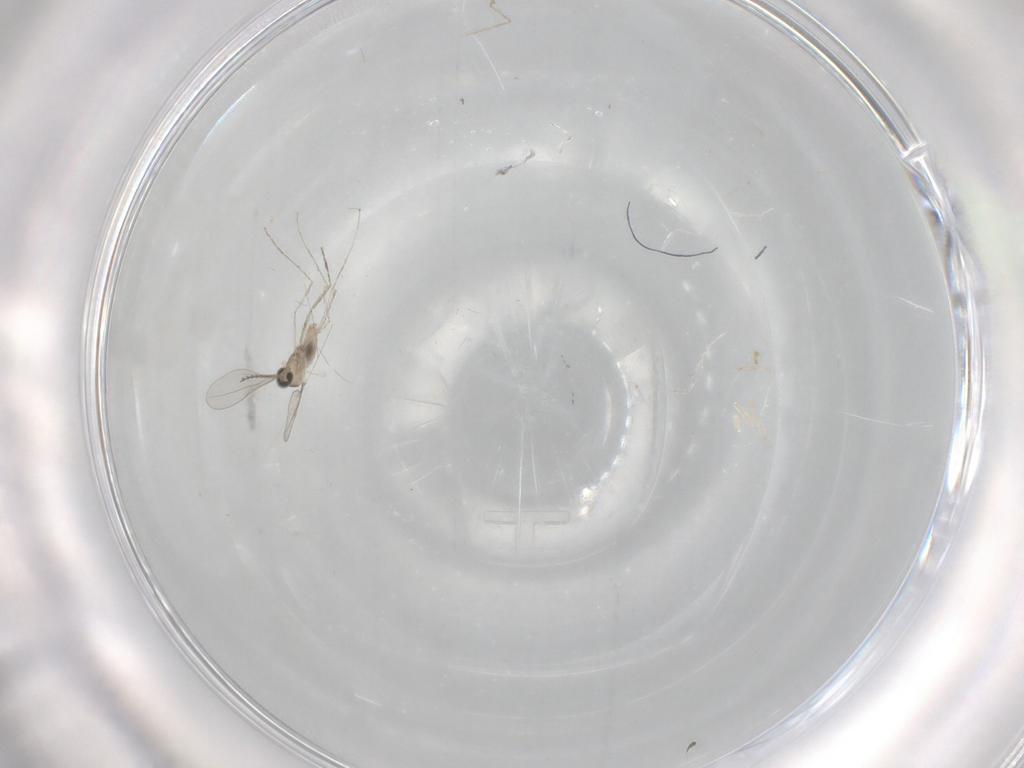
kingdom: Animalia
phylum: Arthropoda
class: Insecta
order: Diptera
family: Cecidomyiidae
